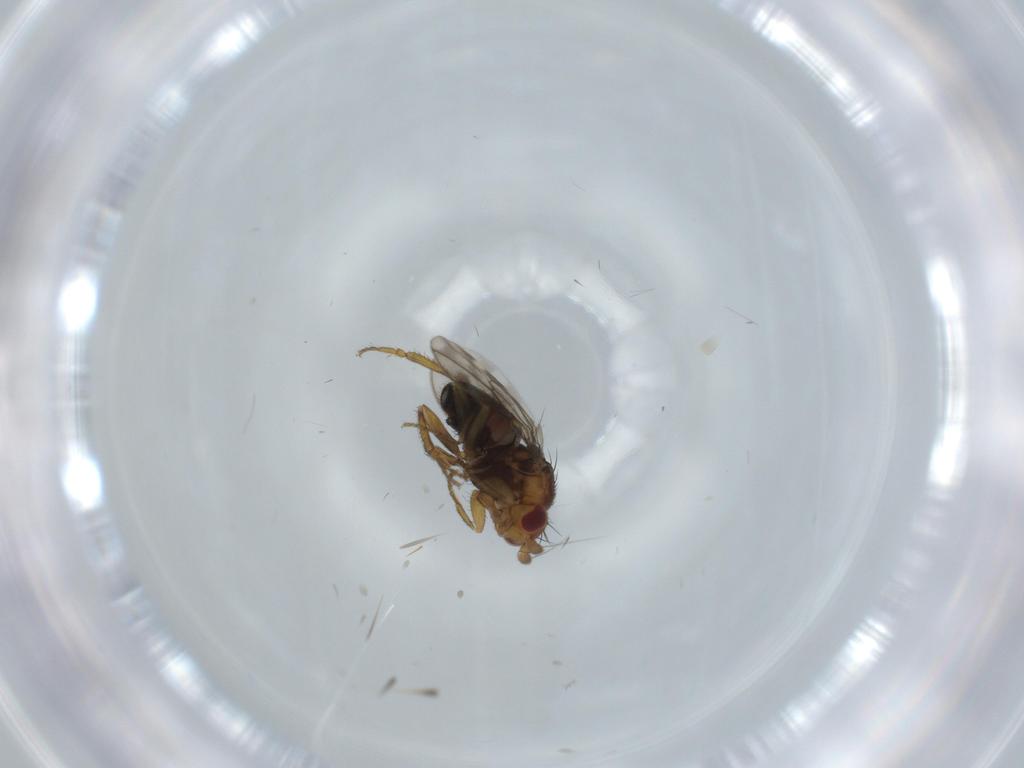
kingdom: Animalia
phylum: Arthropoda
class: Insecta
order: Diptera
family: Sphaeroceridae
